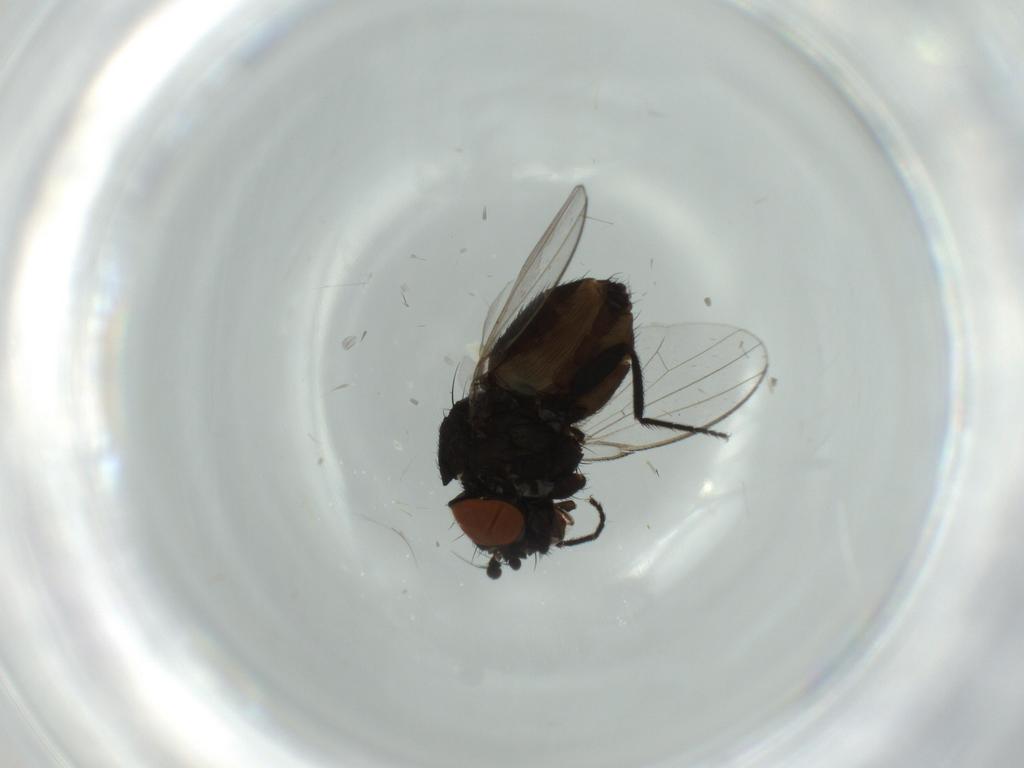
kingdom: Animalia
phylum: Arthropoda
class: Insecta
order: Diptera
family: Milichiidae
